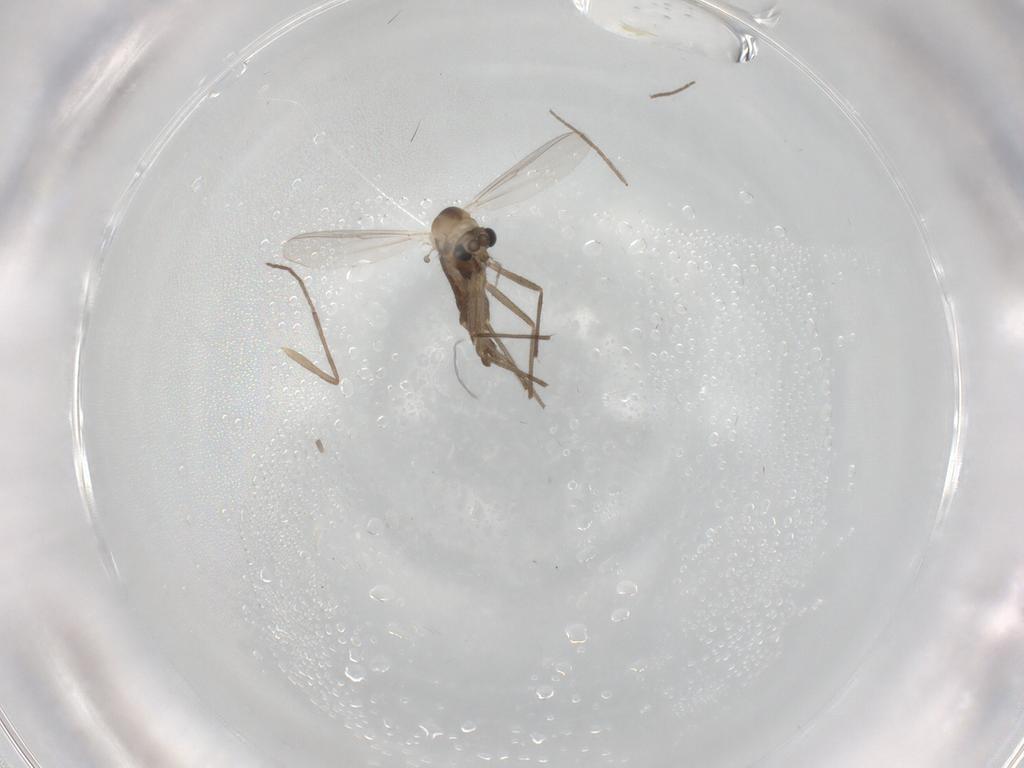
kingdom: Animalia
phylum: Arthropoda
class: Insecta
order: Diptera
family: Chironomidae
